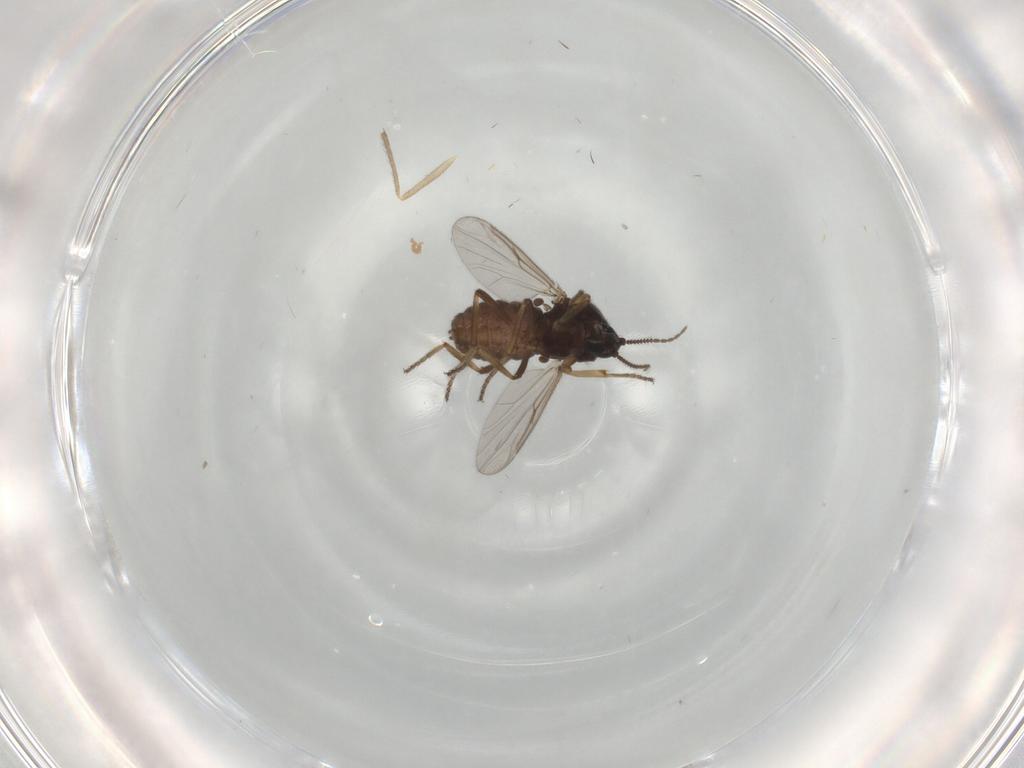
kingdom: Animalia
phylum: Arthropoda
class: Insecta
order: Diptera
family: Ceratopogonidae
